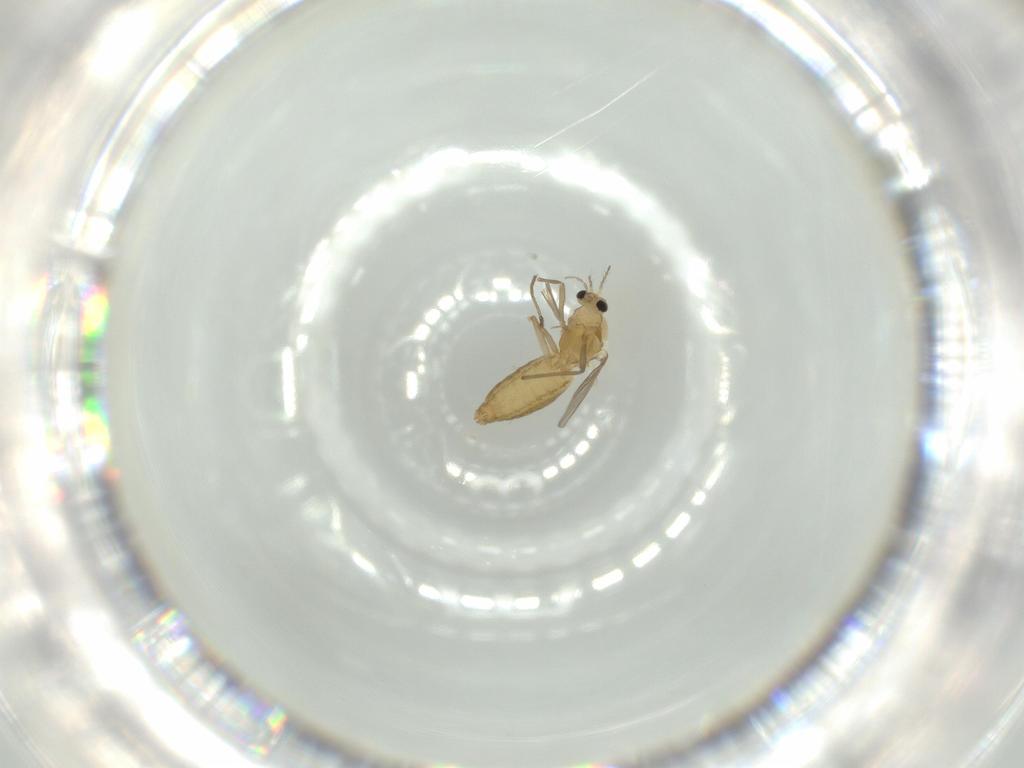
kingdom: Animalia
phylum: Arthropoda
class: Insecta
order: Diptera
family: Chironomidae
